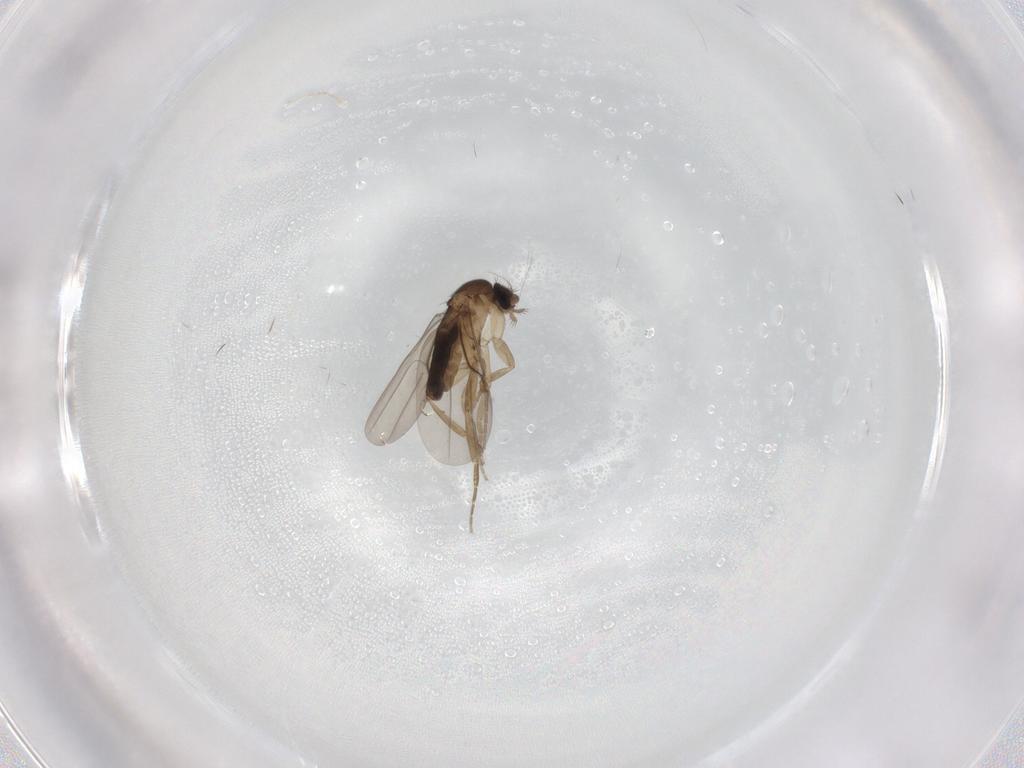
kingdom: Animalia
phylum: Arthropoda
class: Insecta
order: Diptera
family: Phoridae
